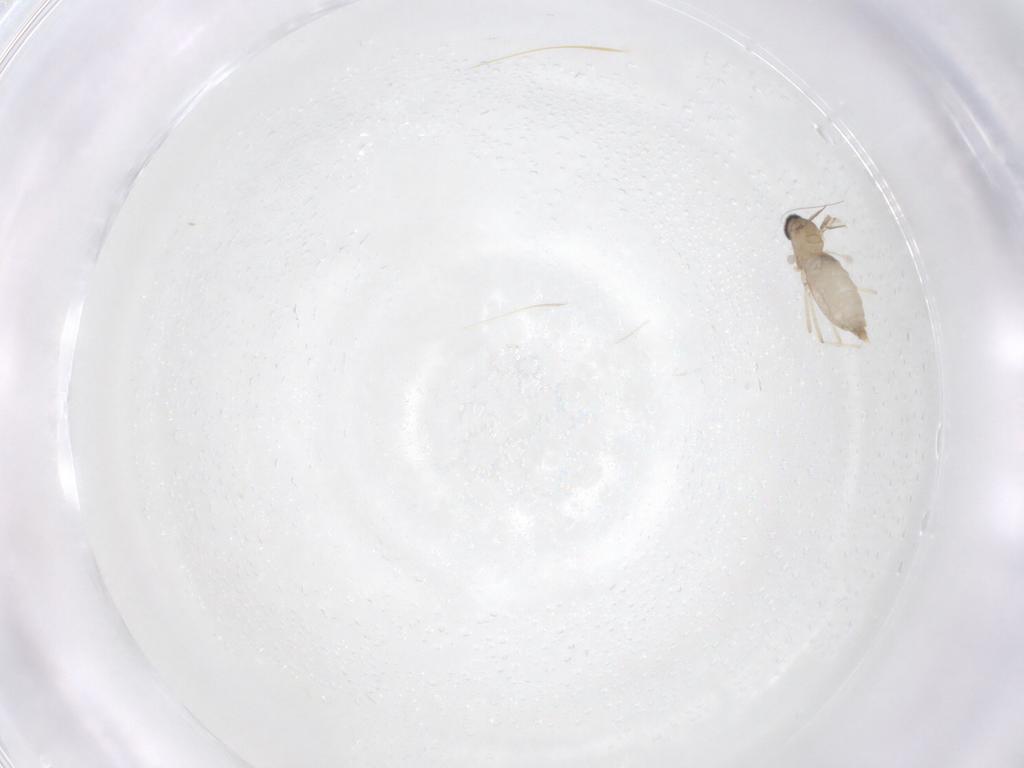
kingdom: Animalia
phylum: Arthropoda
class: Insecta
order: Diptera
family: Cecidomyiidae
